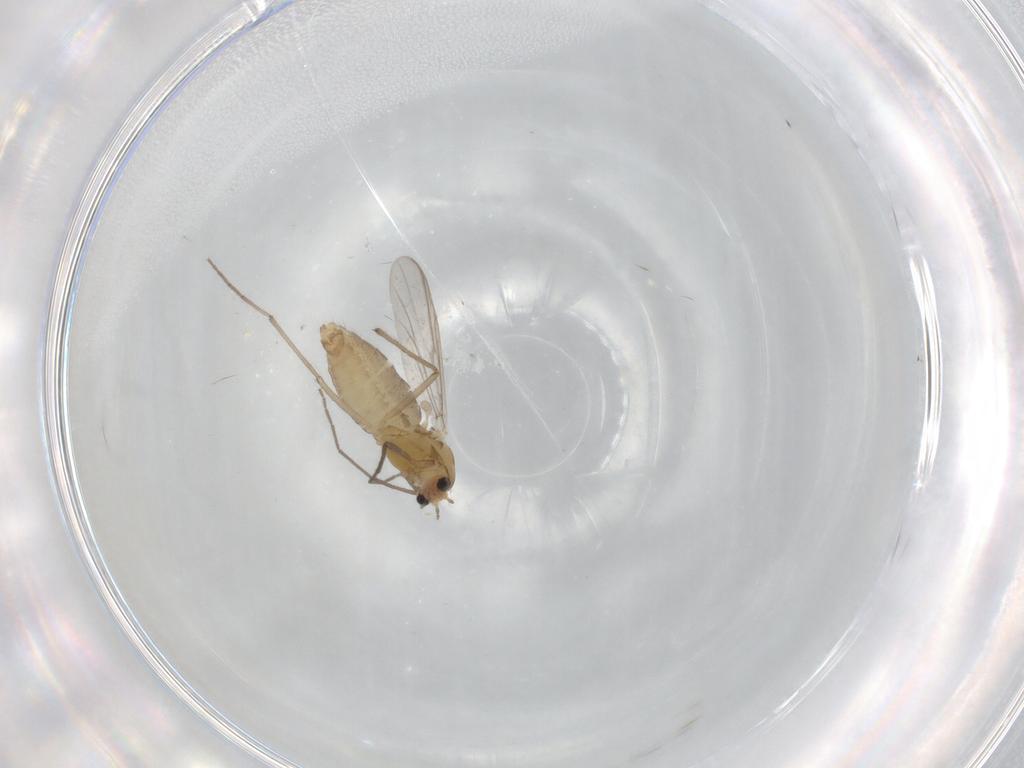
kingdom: Animalia
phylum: Arthropoda
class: Insecta
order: Diptera
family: Chironomidae
